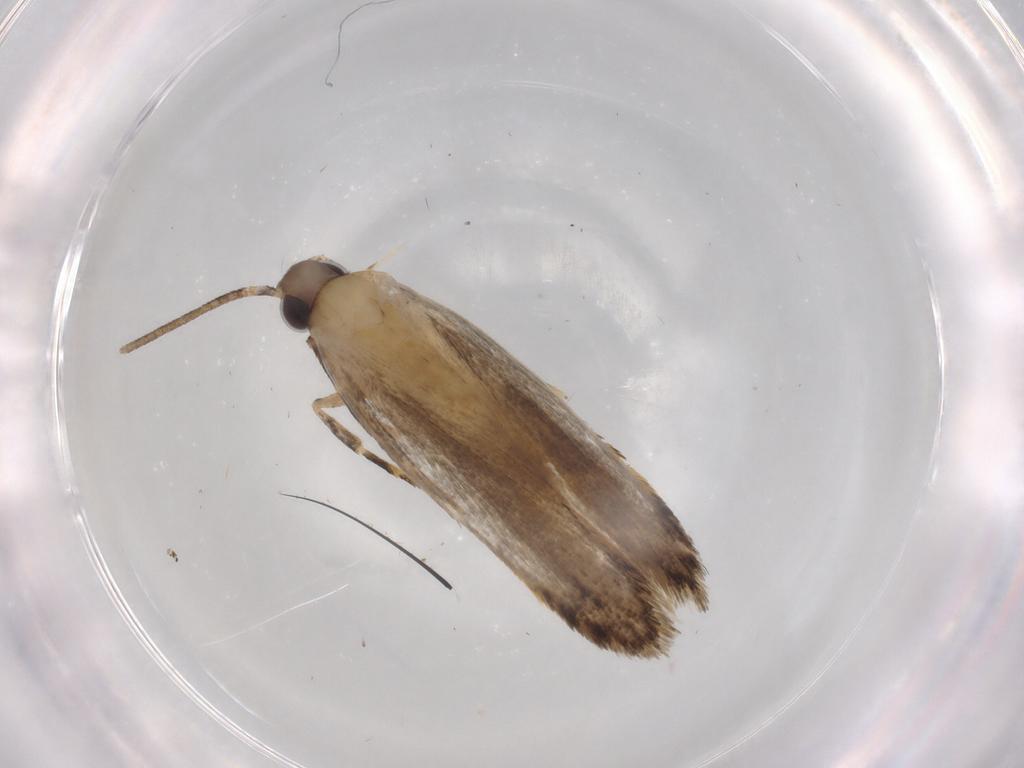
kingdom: Animalia
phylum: Arthropoda
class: Insecta
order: Lepidoptera
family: Autostichidae
